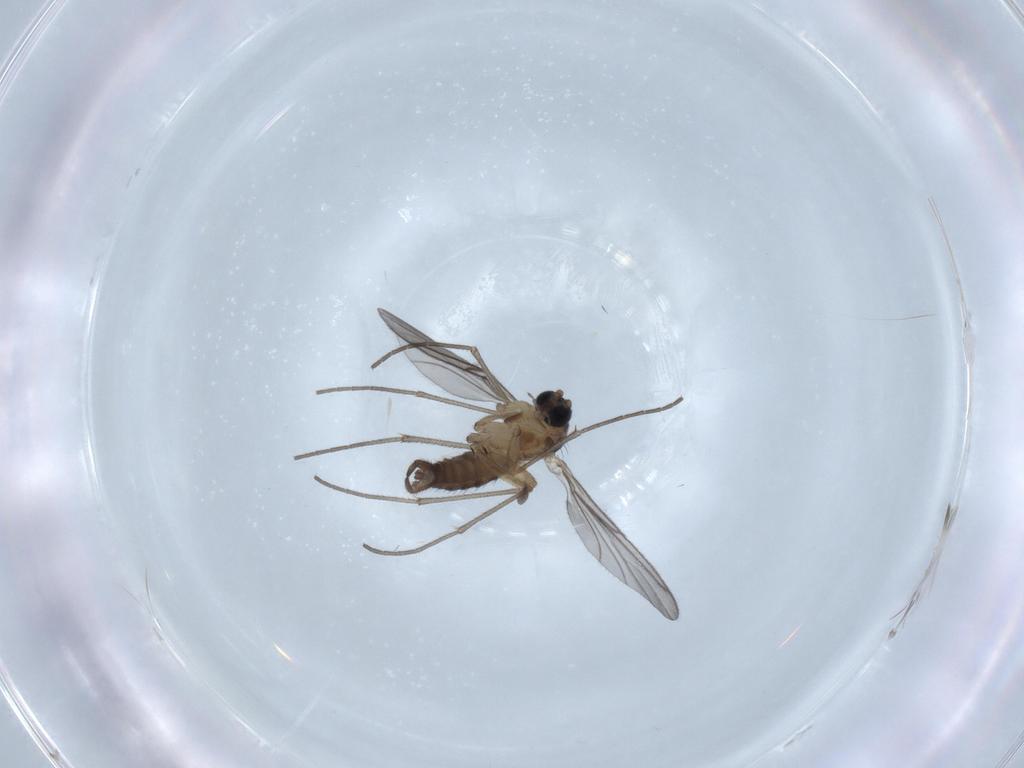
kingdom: Animalia
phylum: Arthropoda
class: Insecta
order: Diptera
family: Sciaridae
